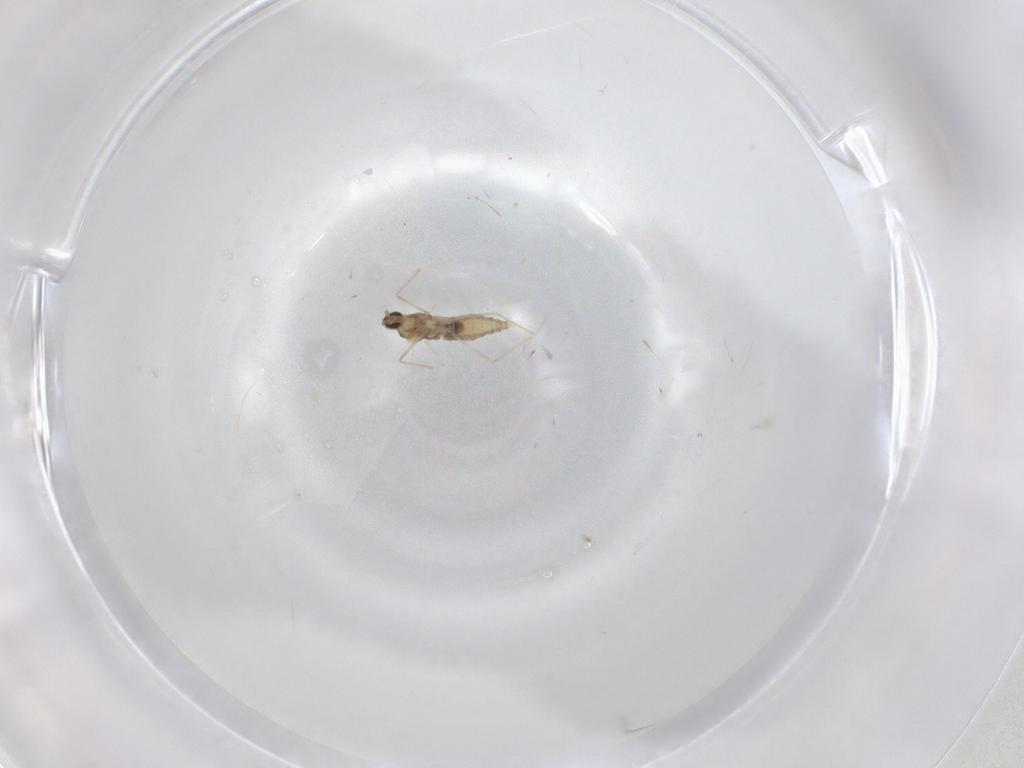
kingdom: Animalia
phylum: Arthropoda
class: Insecta
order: Diptera
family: Cecidomyiidae
